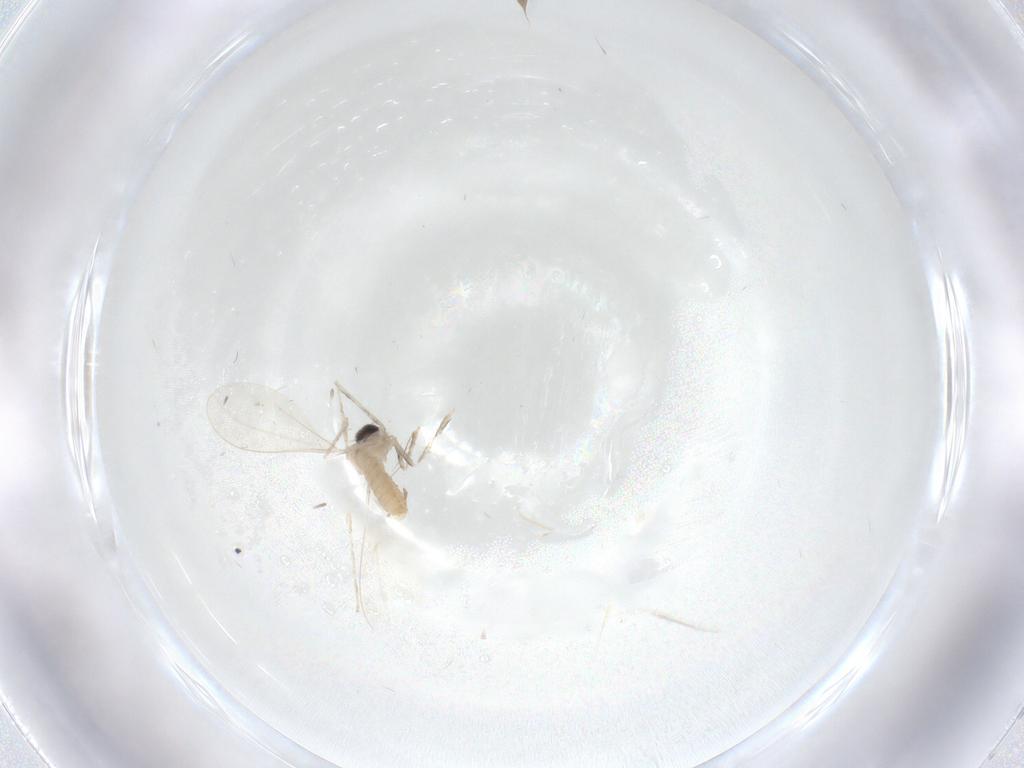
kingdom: Animalia
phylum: Arthropoda
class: Insecta
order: Diptera
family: Cecidomyiidae
